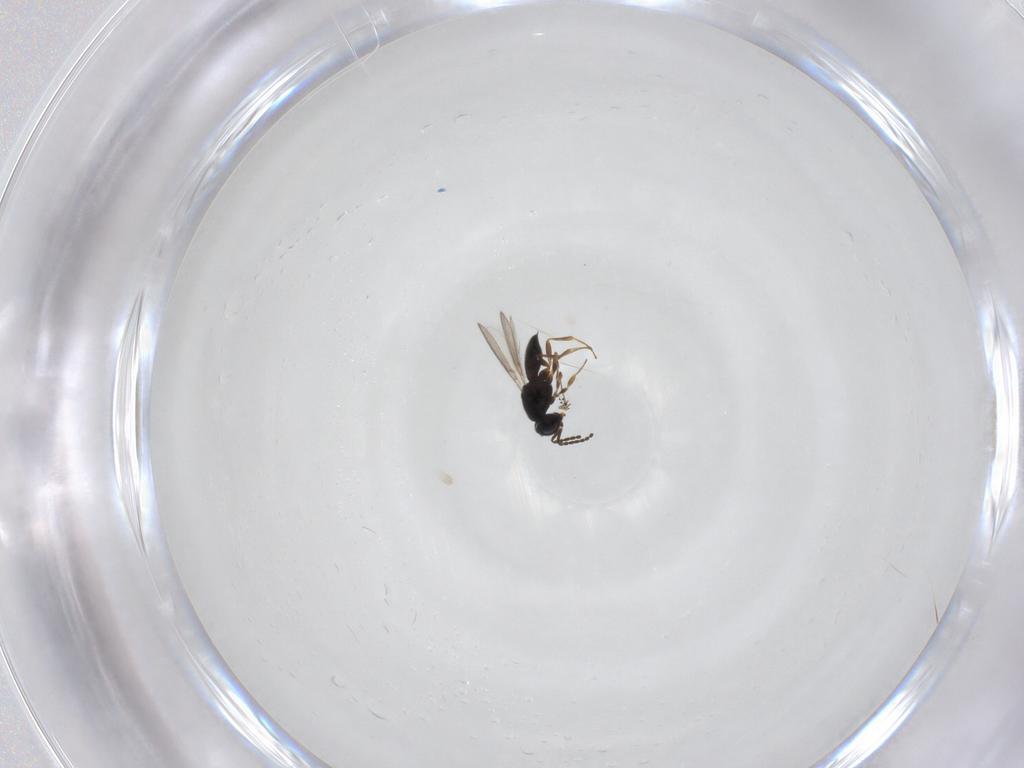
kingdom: Animalia
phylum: Arthropoda
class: Insecta
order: Hymenoptera
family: Scelionidae
